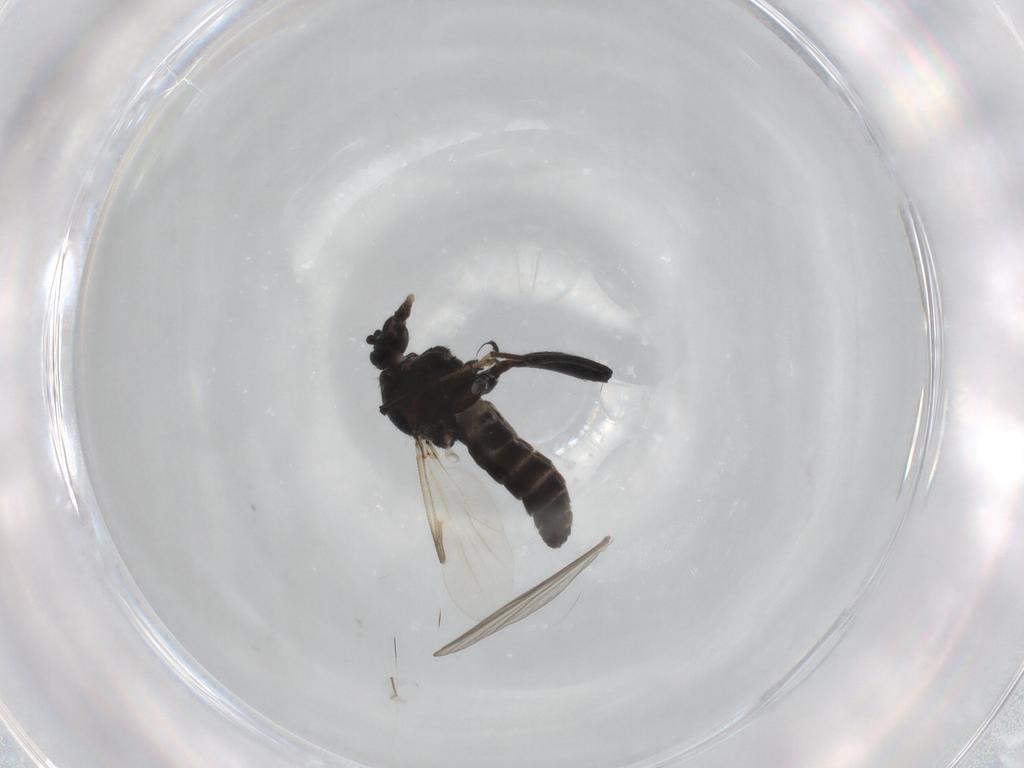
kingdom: Animalia
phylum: Arthropoda
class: Insecta
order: Diptera
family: Ceratopogonidae
